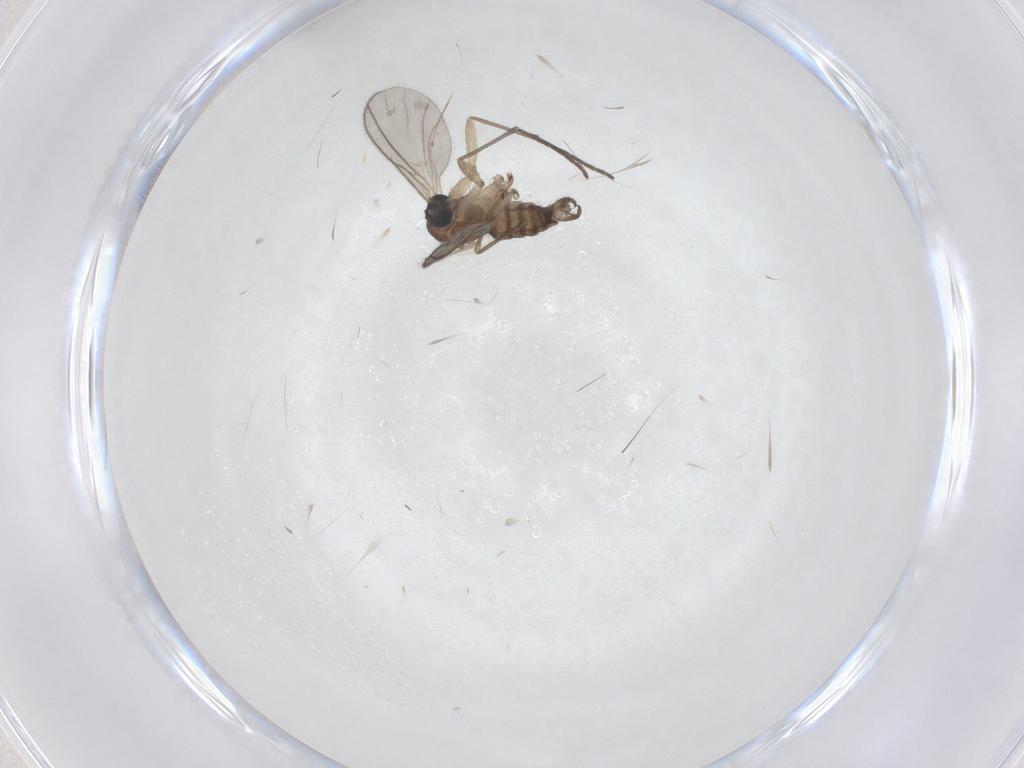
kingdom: Animalia
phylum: Arthropoda
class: Insecta
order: Diptera
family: Sciaridae
